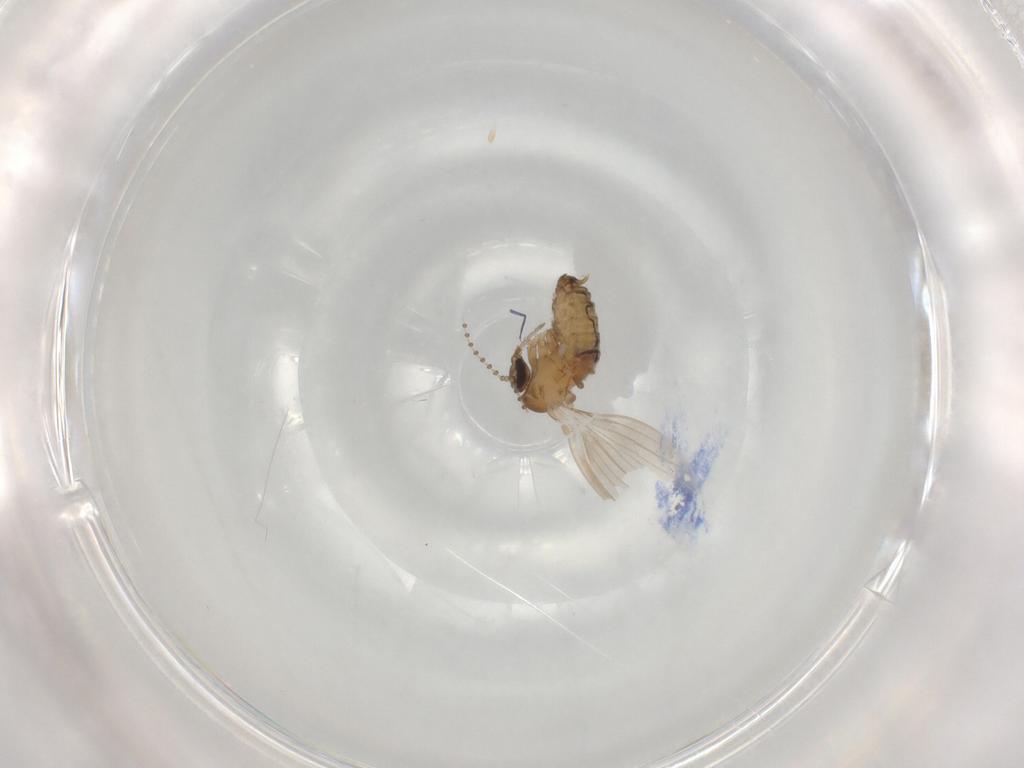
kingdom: Animalia
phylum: Arthropoda
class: Insecta
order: Diptera
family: Psychodidae
